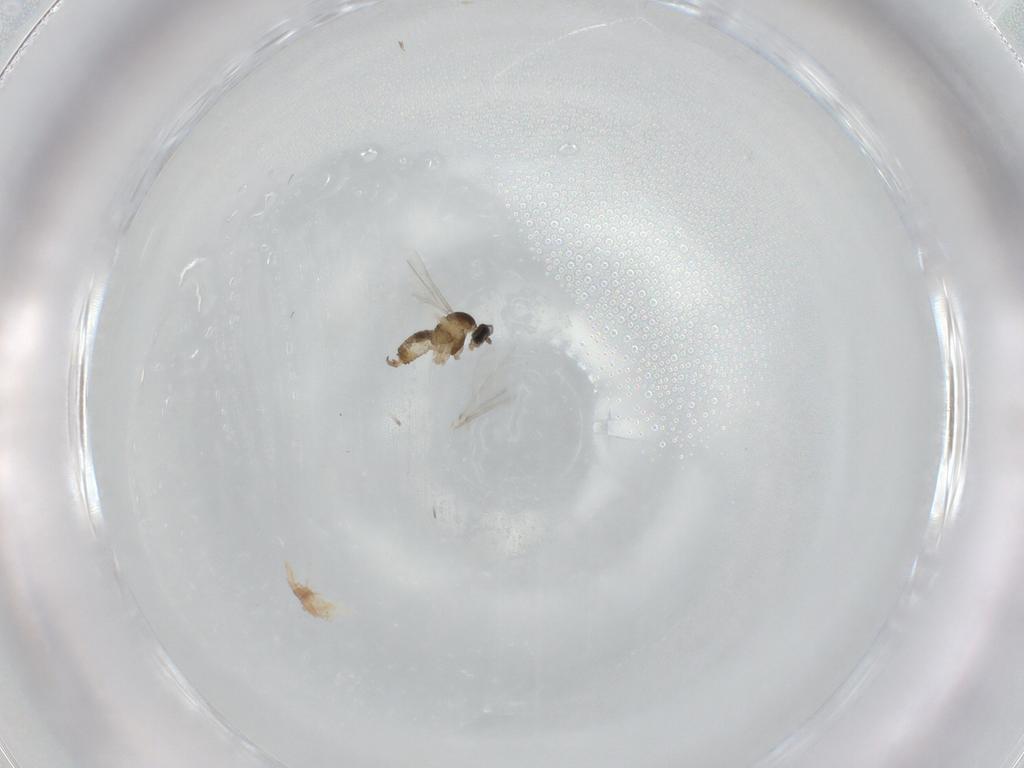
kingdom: Animalia
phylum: Arthropoda
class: Insecta
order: Diptera
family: Cecidomyiidae
